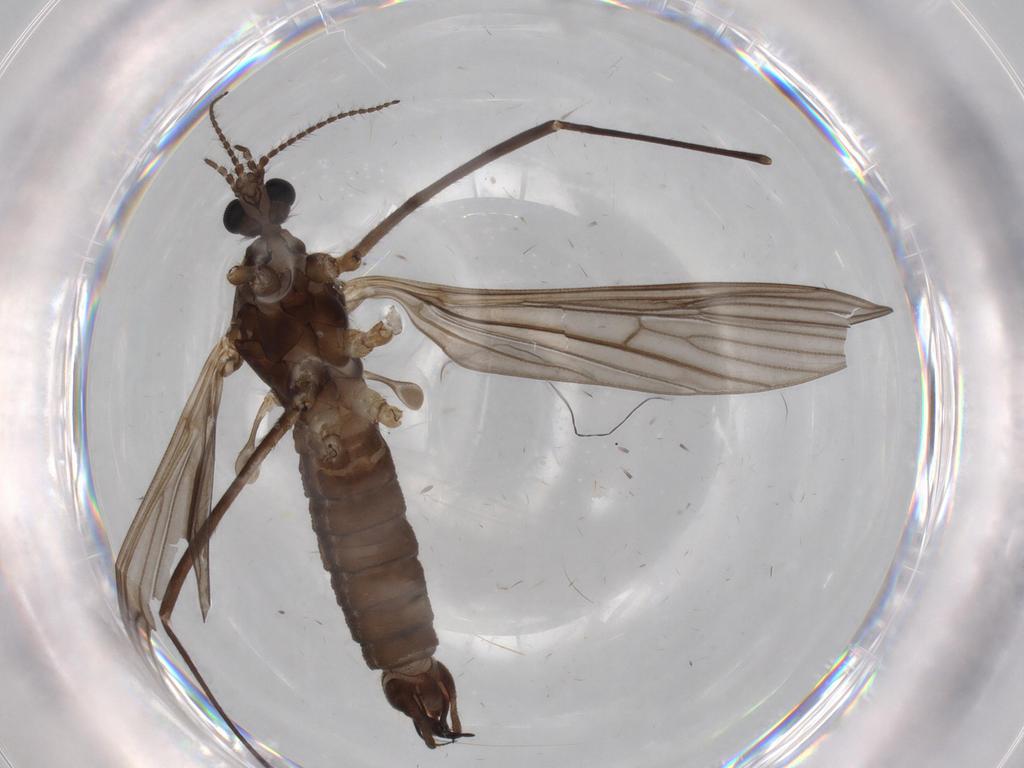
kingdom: Animalia
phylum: Arthropoda
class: Insecta
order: Diptera
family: Limoniidae
